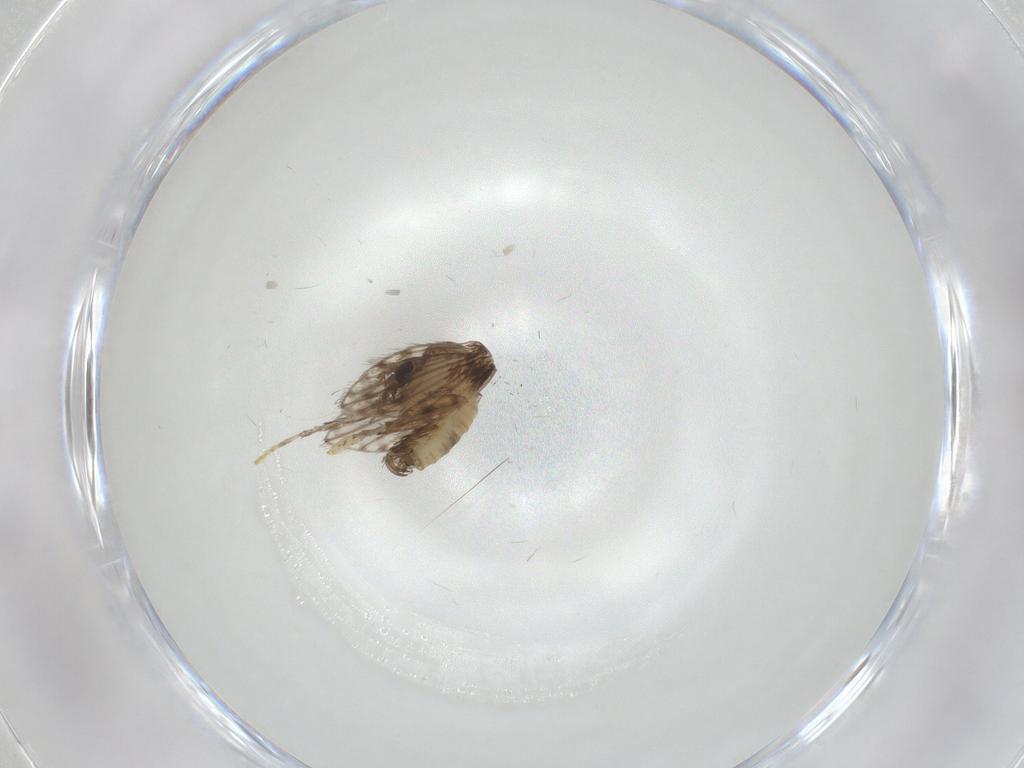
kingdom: Animalia
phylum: Arthropoda
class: Insecta
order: Diptera
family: Psychodidae
